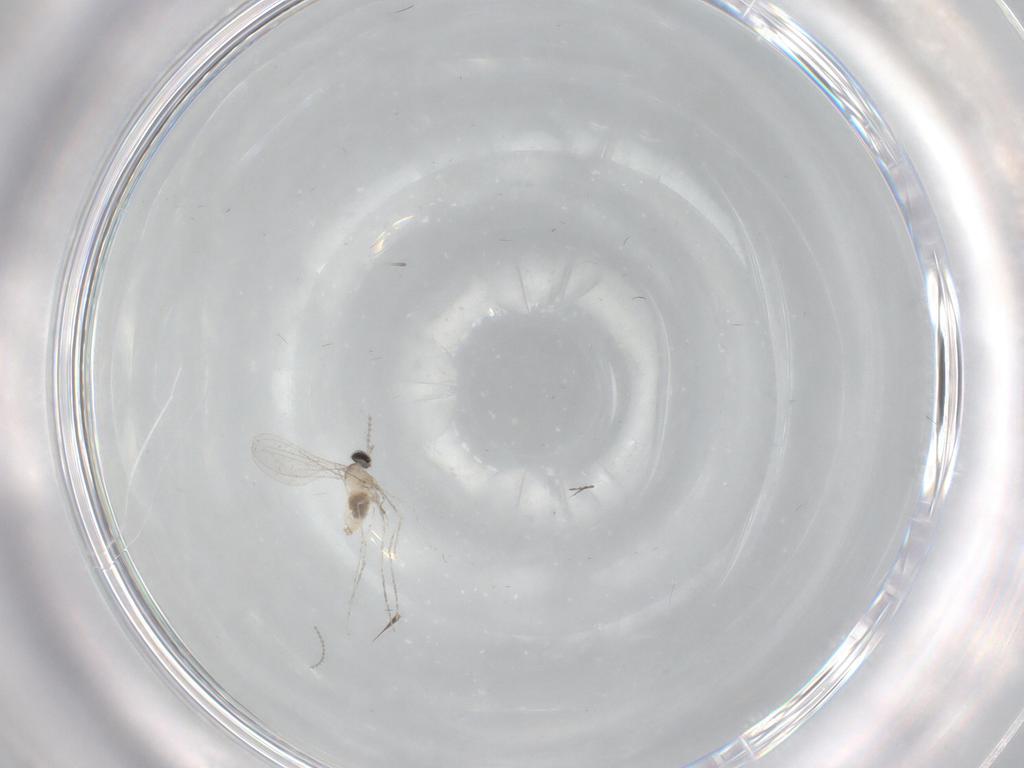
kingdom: Animalia
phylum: Arthropoda
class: Insecta
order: Diptera
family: Cecidomyiidae
